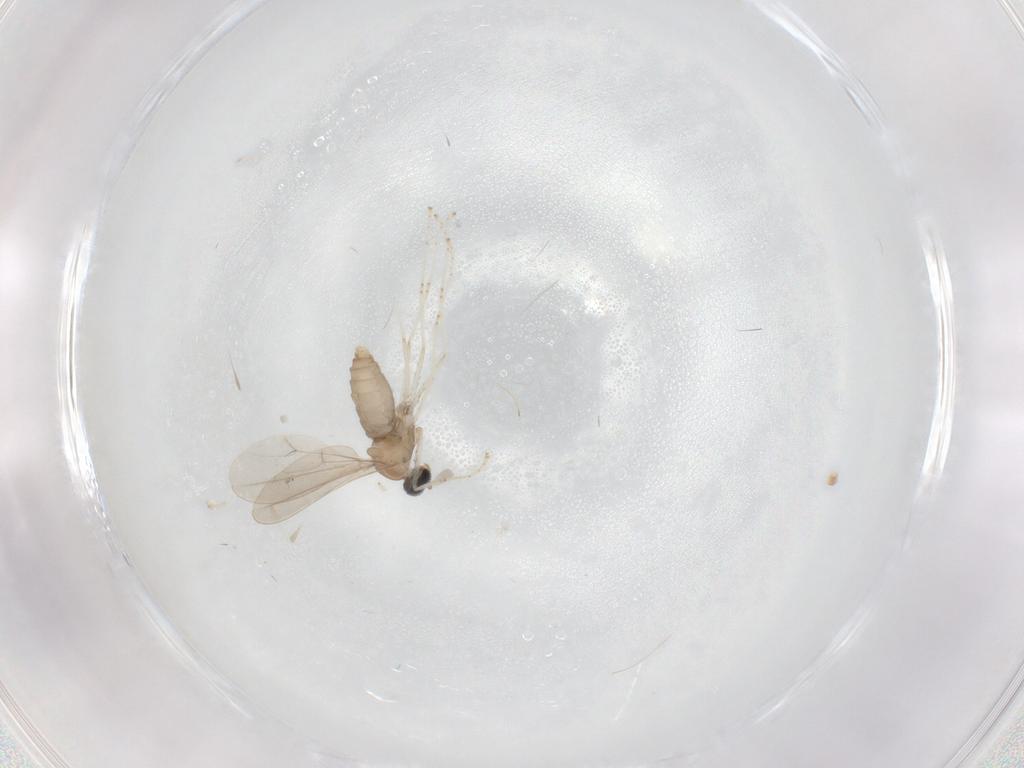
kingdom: Animalia
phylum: Arthropoda
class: Insecta
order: Diptera
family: Cecidomyiidae
